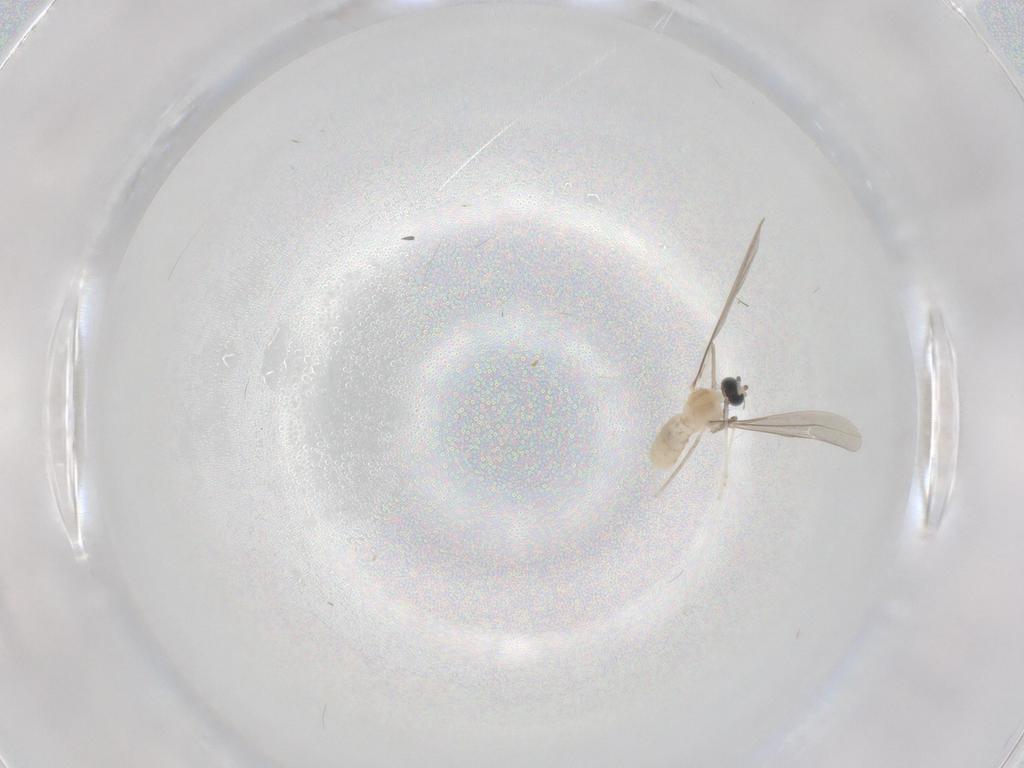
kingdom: Animalia
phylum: Arthropoda
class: Insecta
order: Diptera
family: Cecidomyiidae
